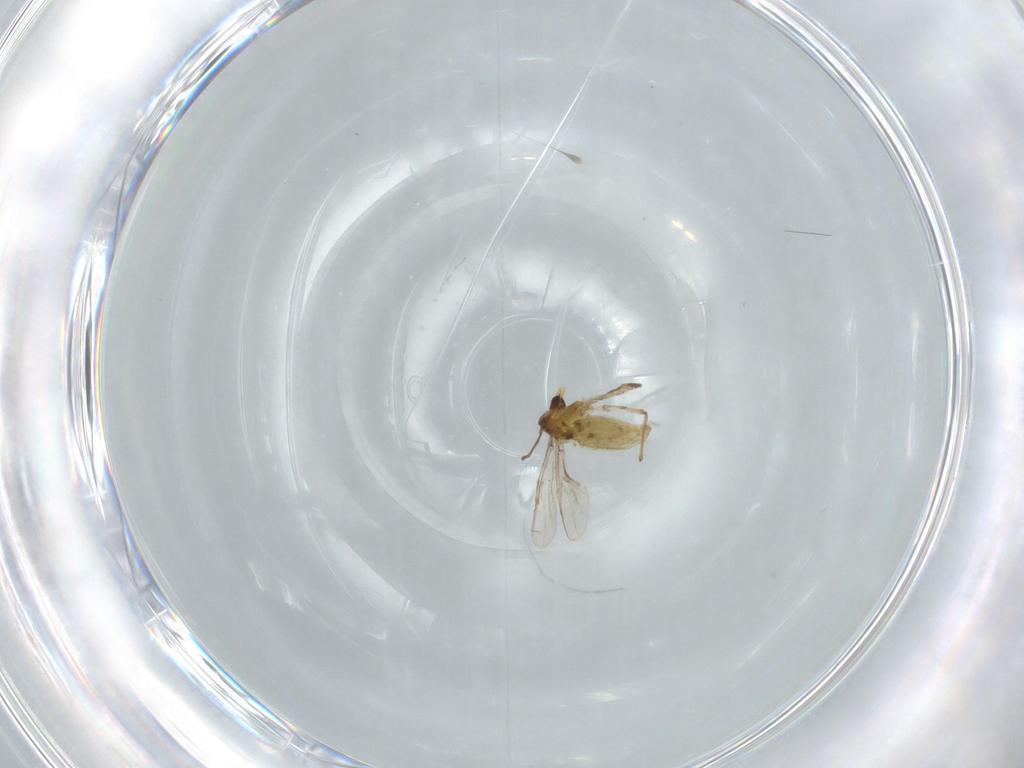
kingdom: Animalia
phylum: Arthropoda
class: Insecta
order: Diptera
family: Chironomidae
